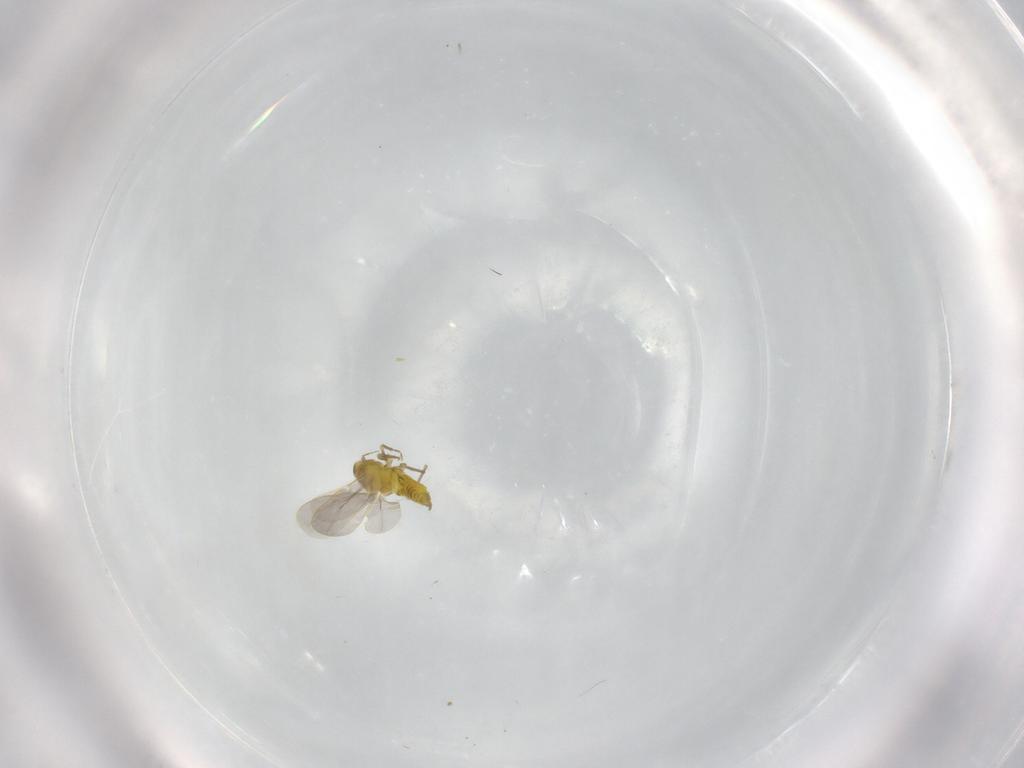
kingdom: Animalia
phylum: Arthropoda
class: Insecta
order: Hemiptera
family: Aleyrodidae
